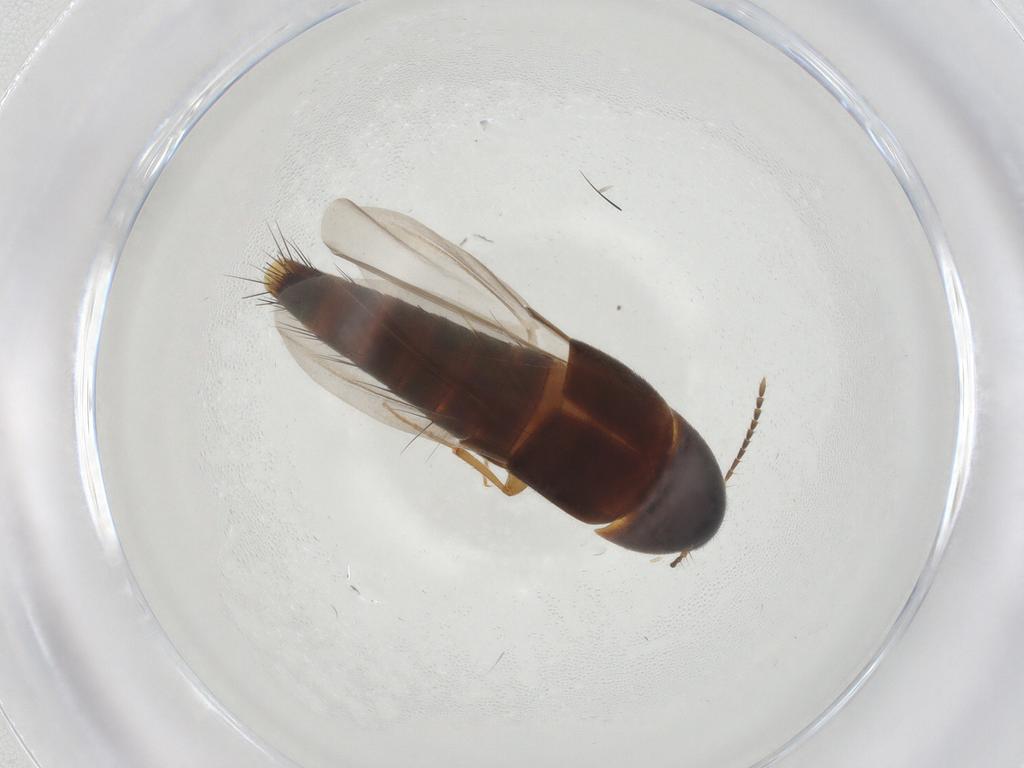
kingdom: Animalia
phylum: Arthropoda
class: Insecta
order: Coleoptera
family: Staphylinidae
